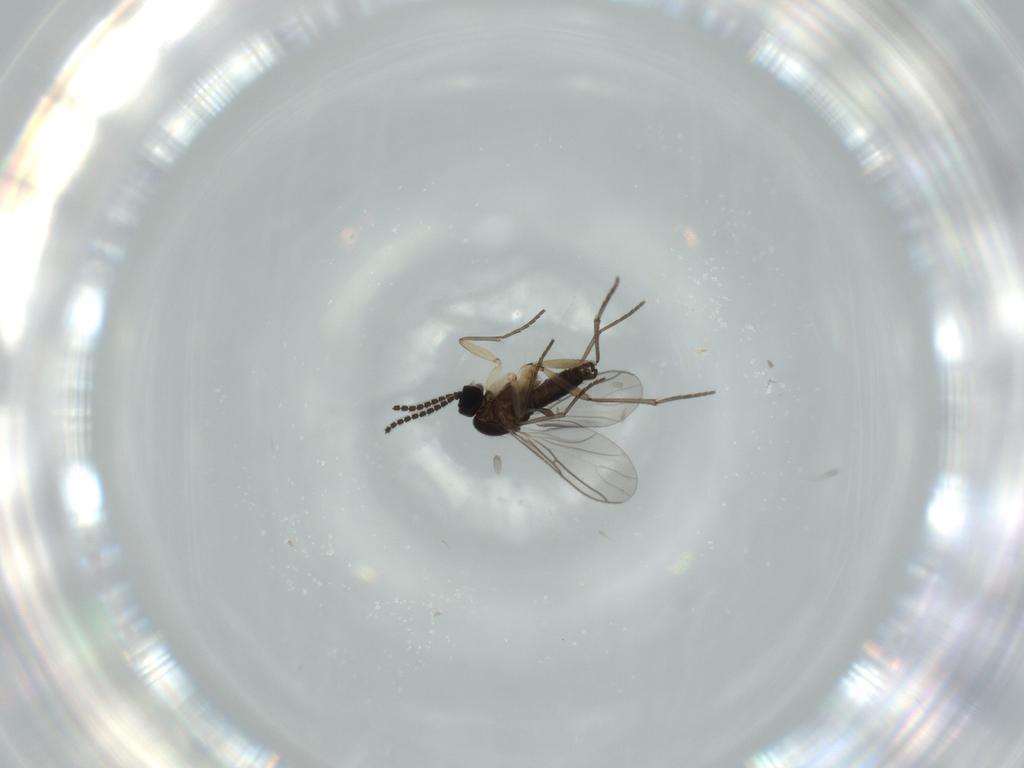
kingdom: Animalia
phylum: Arthropoda
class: Insecta
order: Diptera
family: Sciaridae
